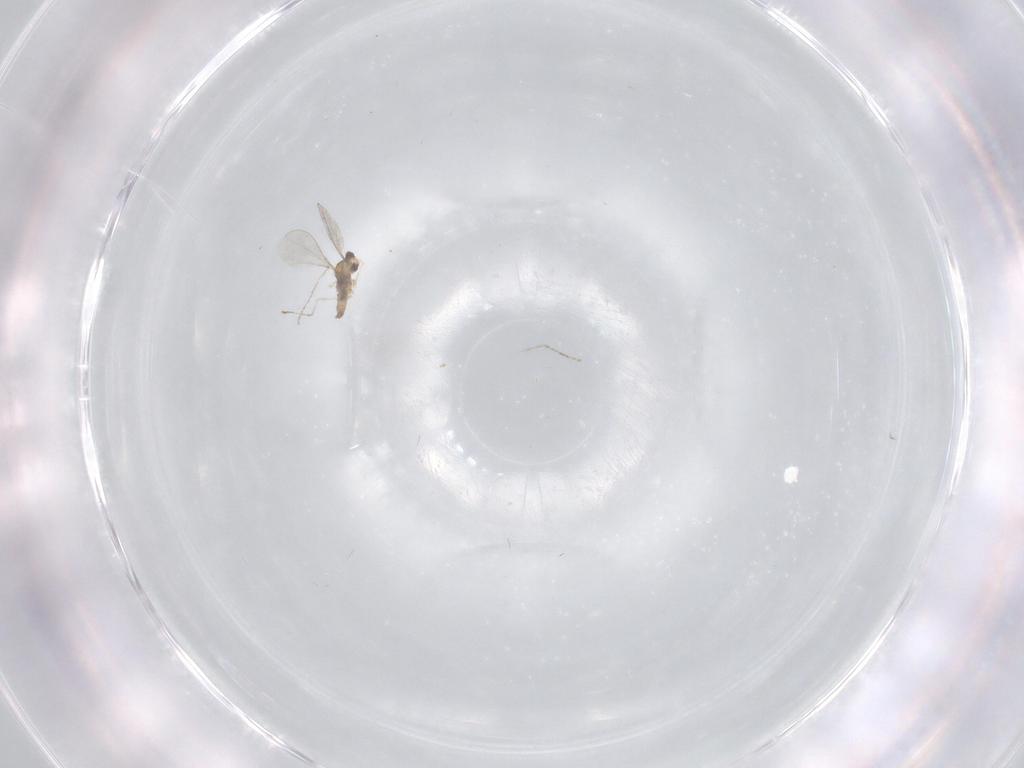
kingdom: Animalia
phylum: Arthropoda
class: Insecta
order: Diptera
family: Cecidomyiidae
